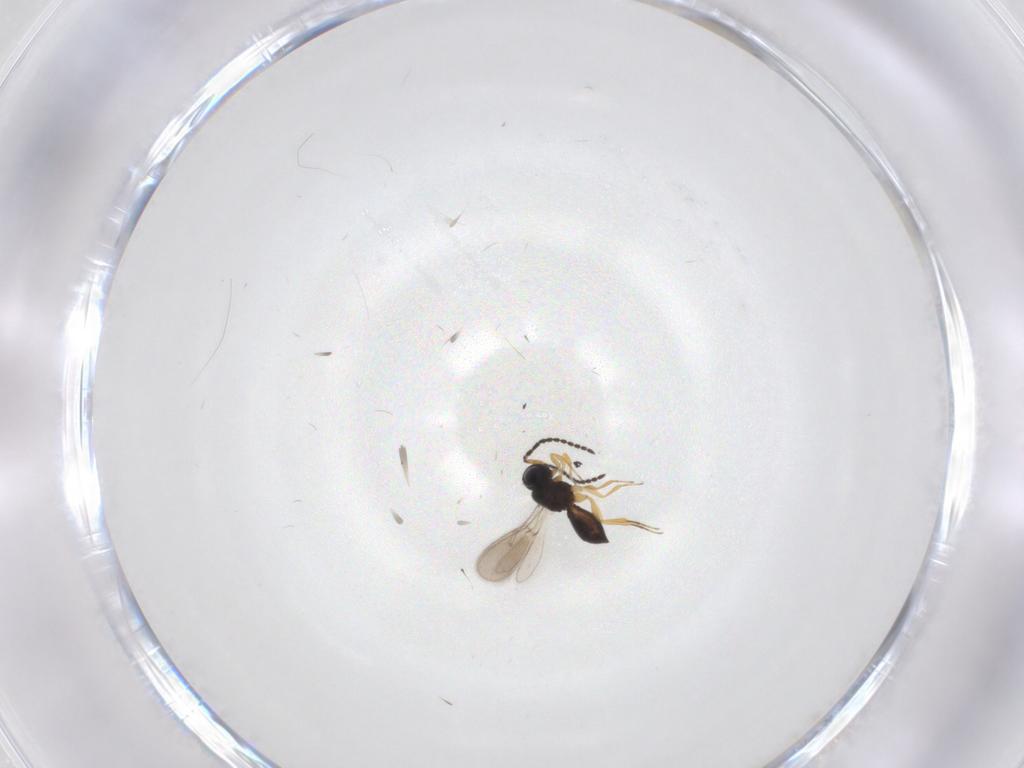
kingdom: Animalia
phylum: Arthropoda
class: Insecta
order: Hymenoptera
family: Scelionidae
